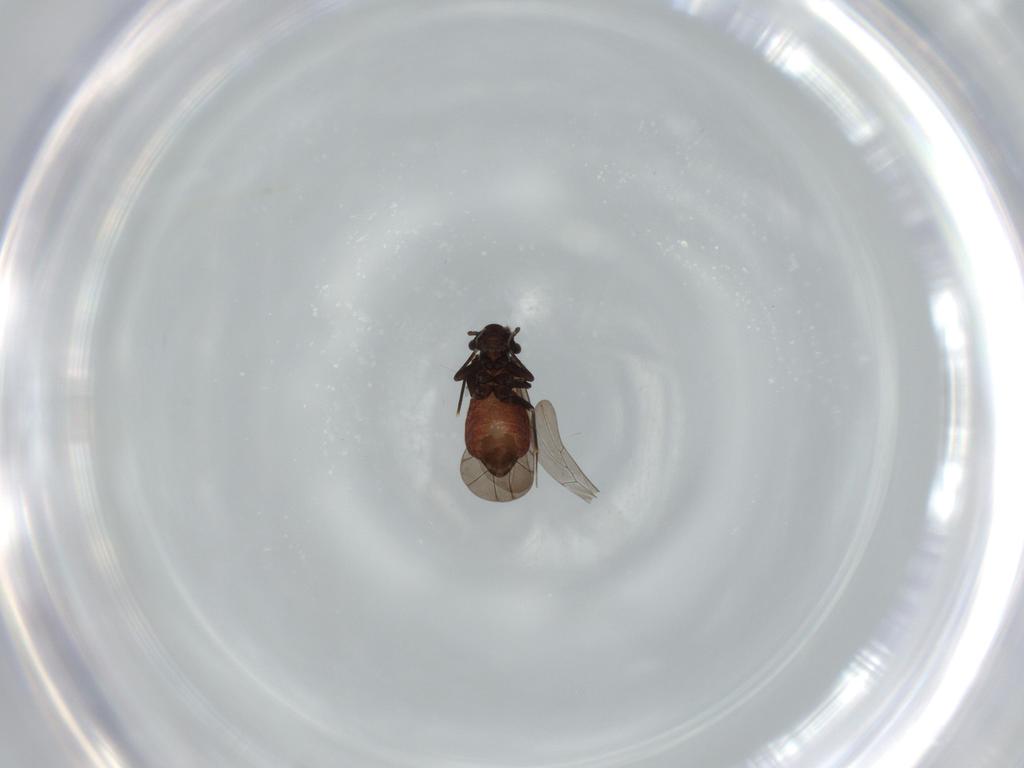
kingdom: Animalia
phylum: Arthropoda
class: Insecta
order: Psocodea
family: Lepidopsocidae
